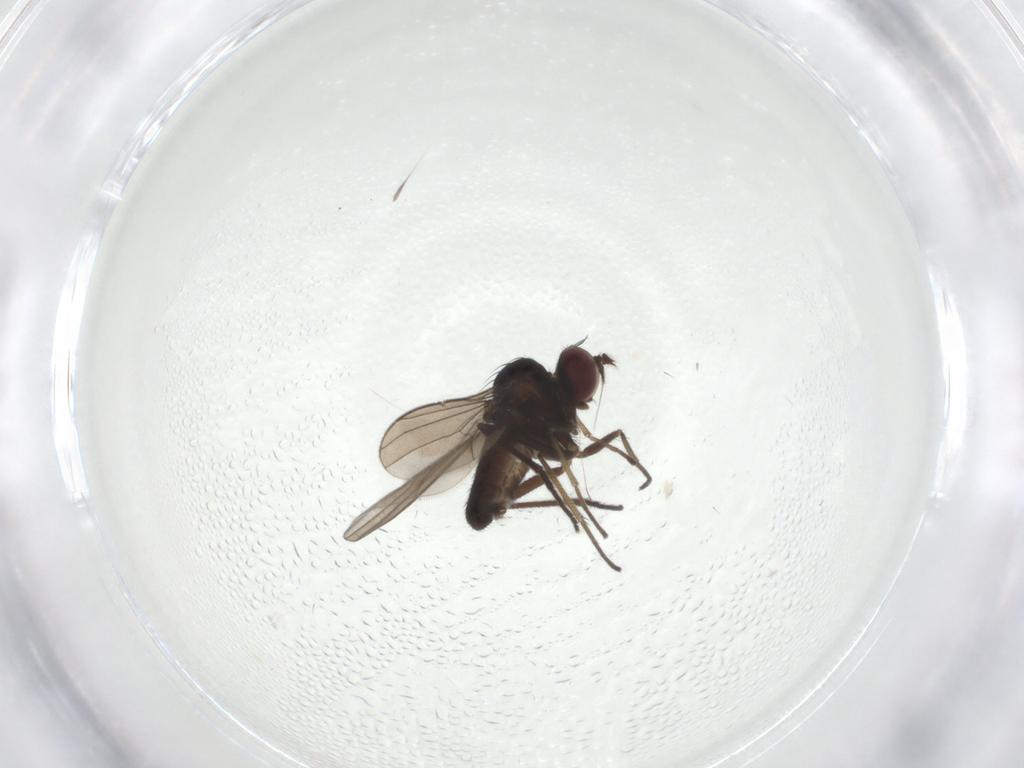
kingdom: Animalia
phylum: Arthropoda
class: Insecta
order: Diptera
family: Dolichopodidae
